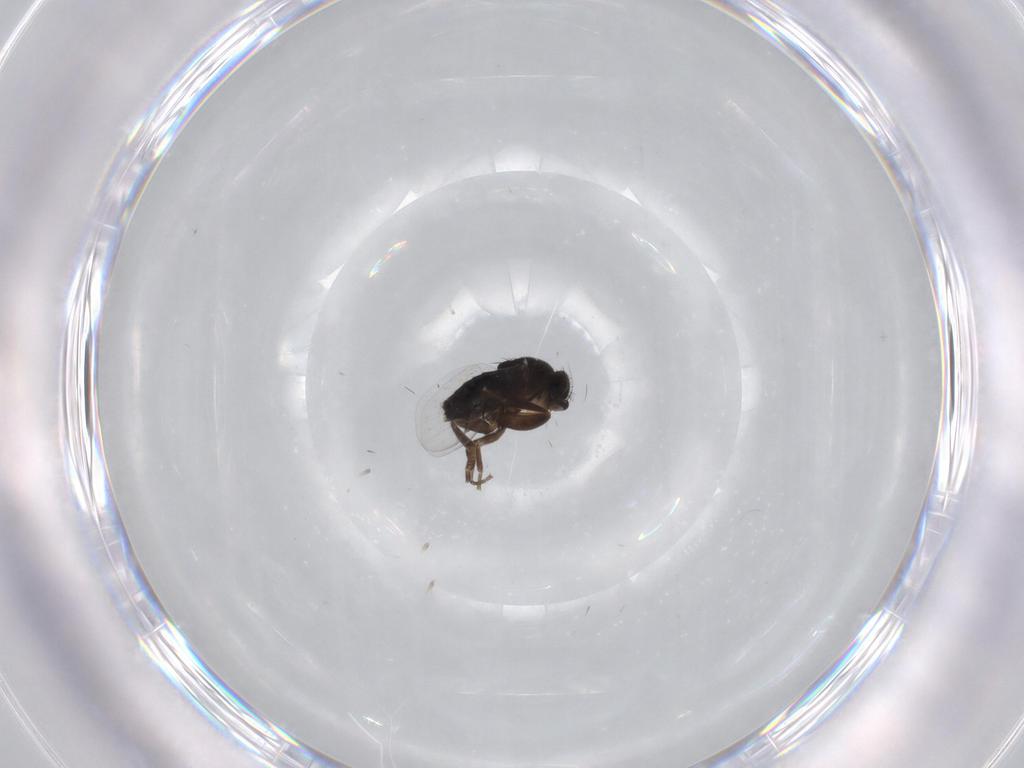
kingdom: Animalia
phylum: Arthropoda
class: Insecta
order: Diptera
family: Phoridae
